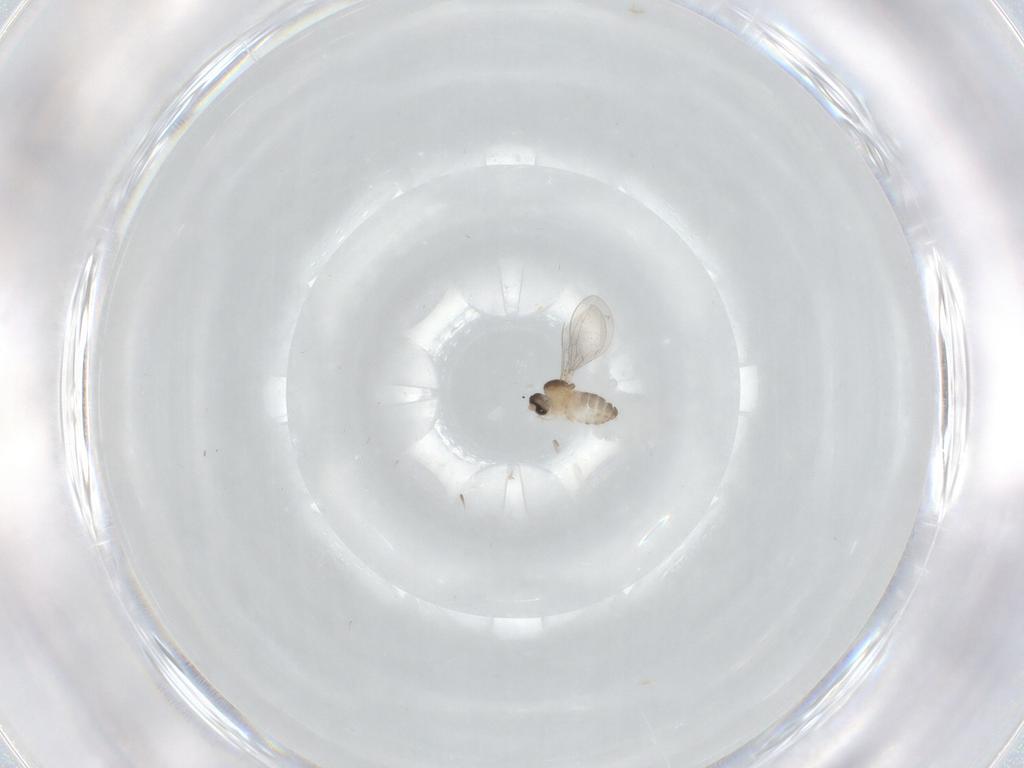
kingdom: Animalia
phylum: Arthropoda
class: Insecta
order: Diptera
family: Cecidomyiidae
